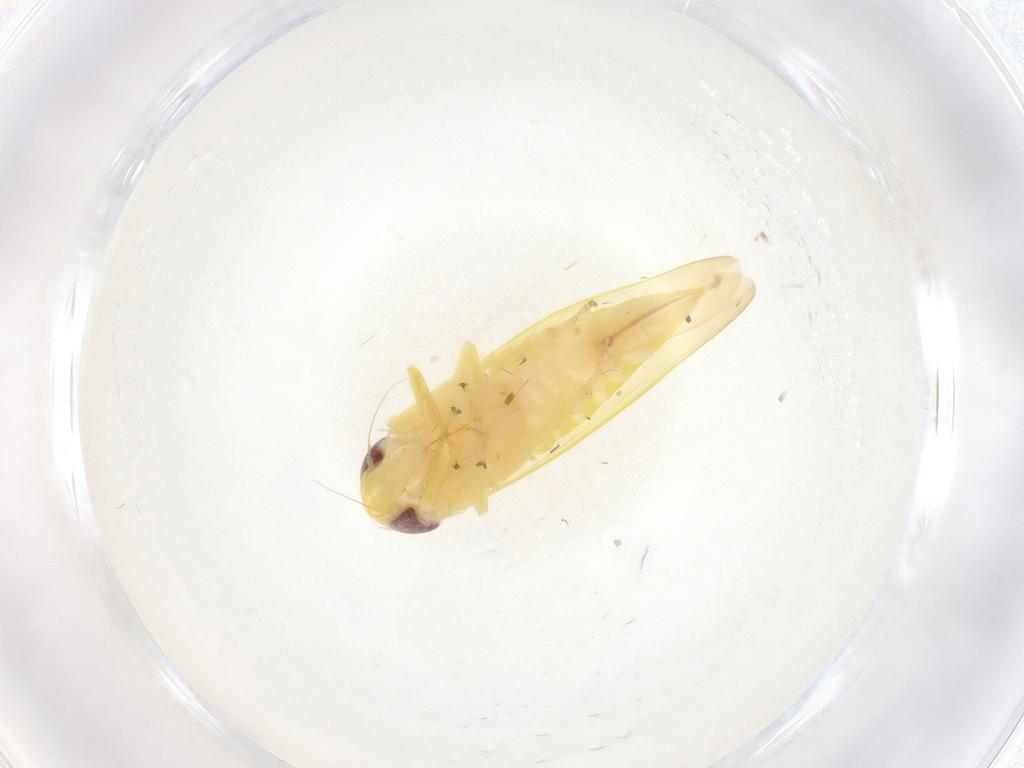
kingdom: Animalia
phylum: Arthropoda
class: Insecta
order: Hemiptera
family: Cicadellidae
